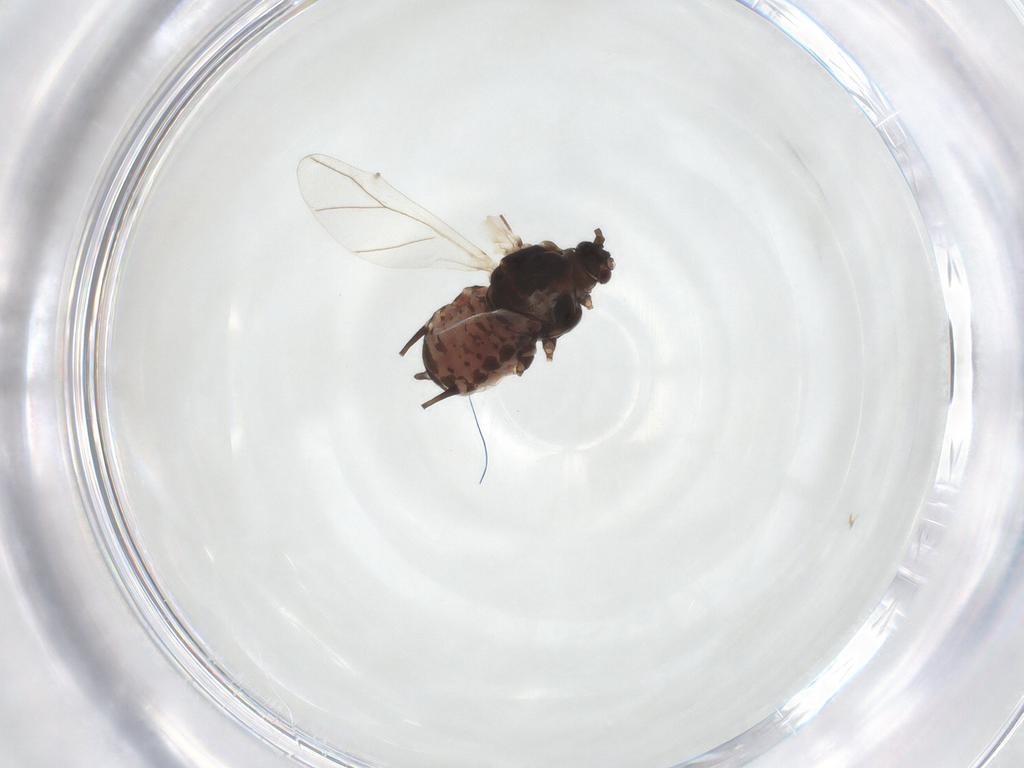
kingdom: Animalia
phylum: Arthropoda
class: Insecta
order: Hemiptera
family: Aphididae
